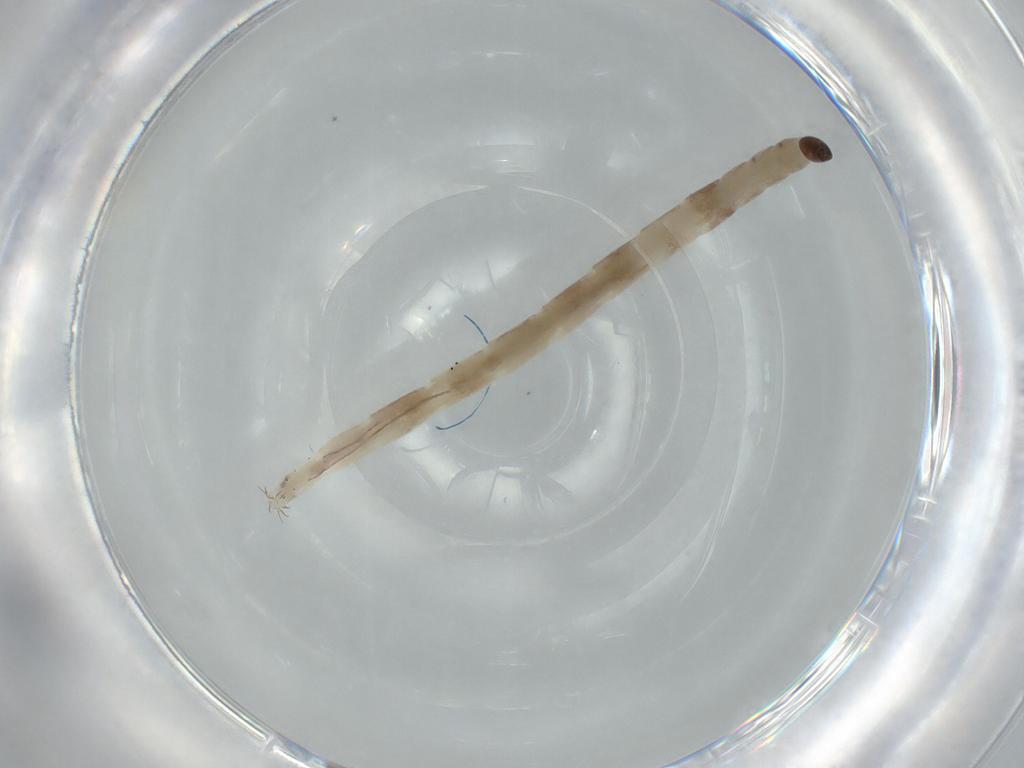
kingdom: Animalia
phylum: Arthropoda
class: Insecta
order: Diptera
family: Ceratopogonidae
